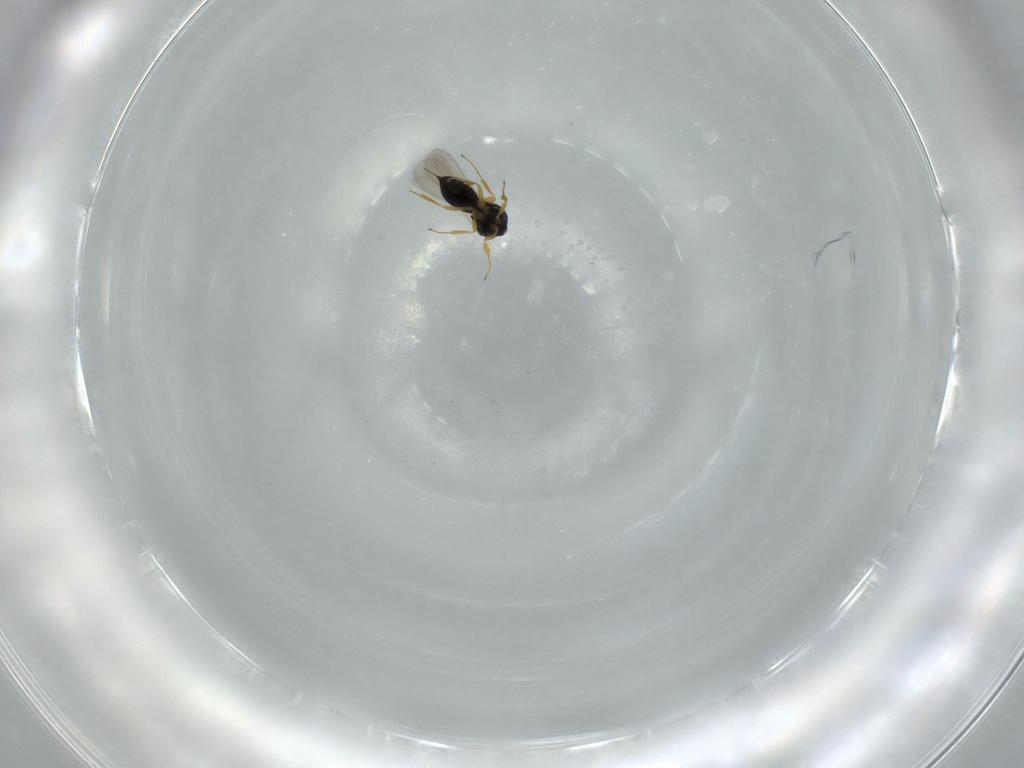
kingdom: Animalia
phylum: Arthropoda
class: Insecta
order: Hymenoptera
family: Scelionidae
